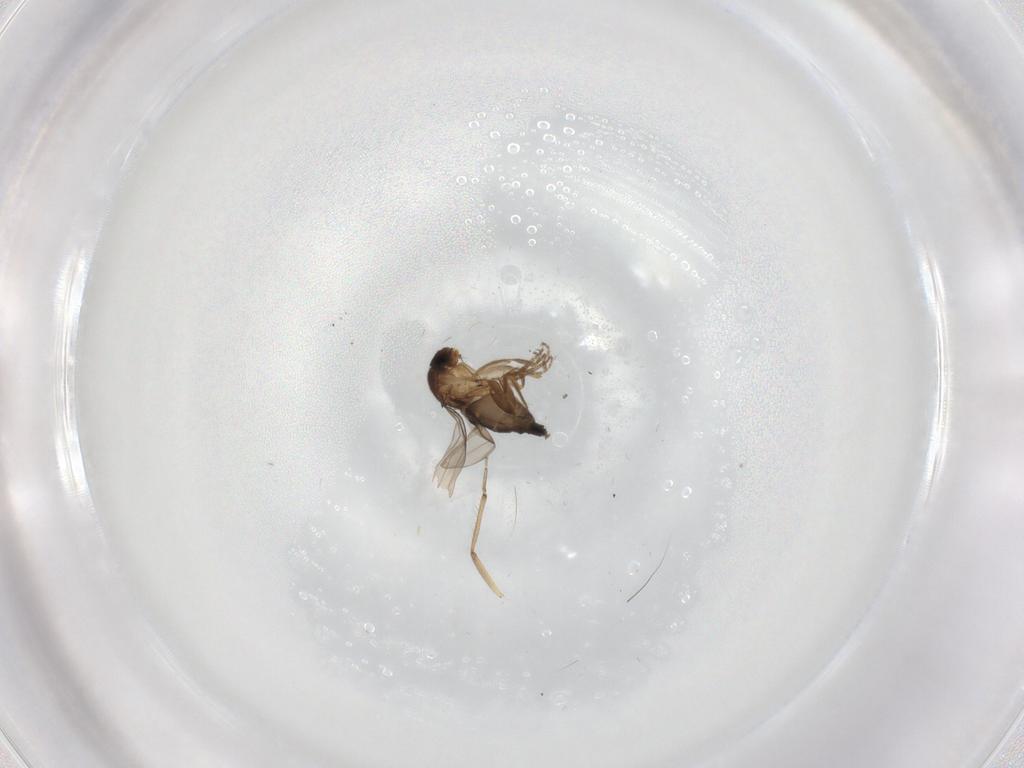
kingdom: Animalia
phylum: Arthropoda
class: Insecta
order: Diptera
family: Phoridae
